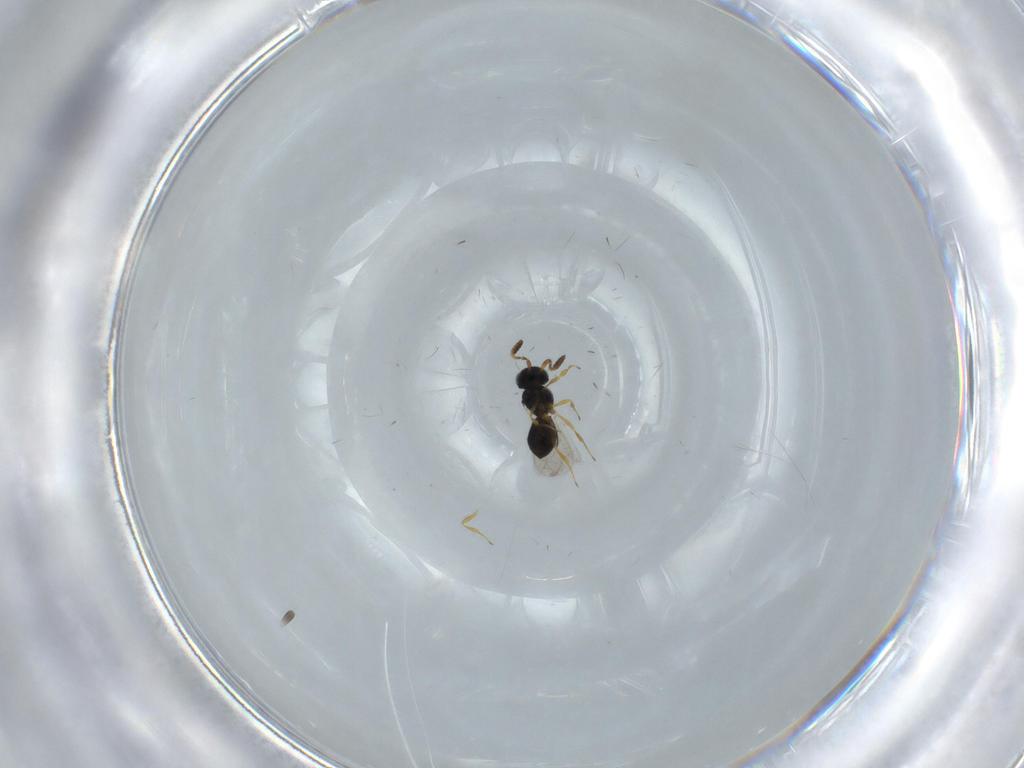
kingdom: Animalia
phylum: Arthropoda
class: Insecta
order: Hymenoptera
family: Scelionidae
